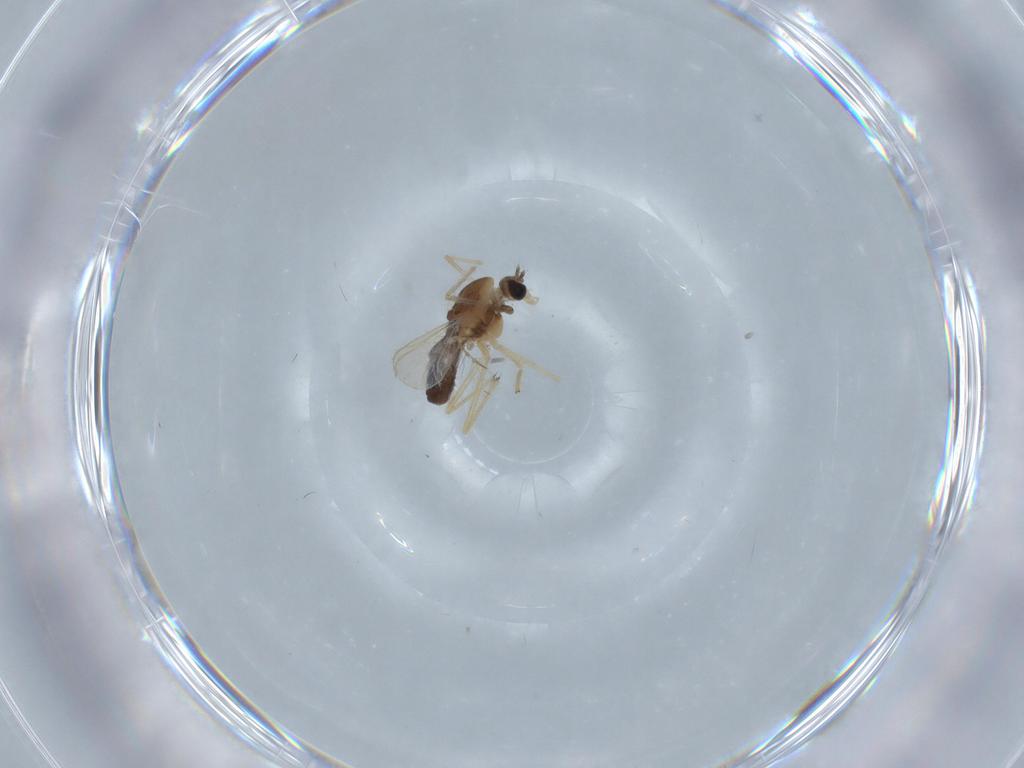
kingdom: Animalia
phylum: Arthropoda
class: Insecta
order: Diptera
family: Chironomidae
